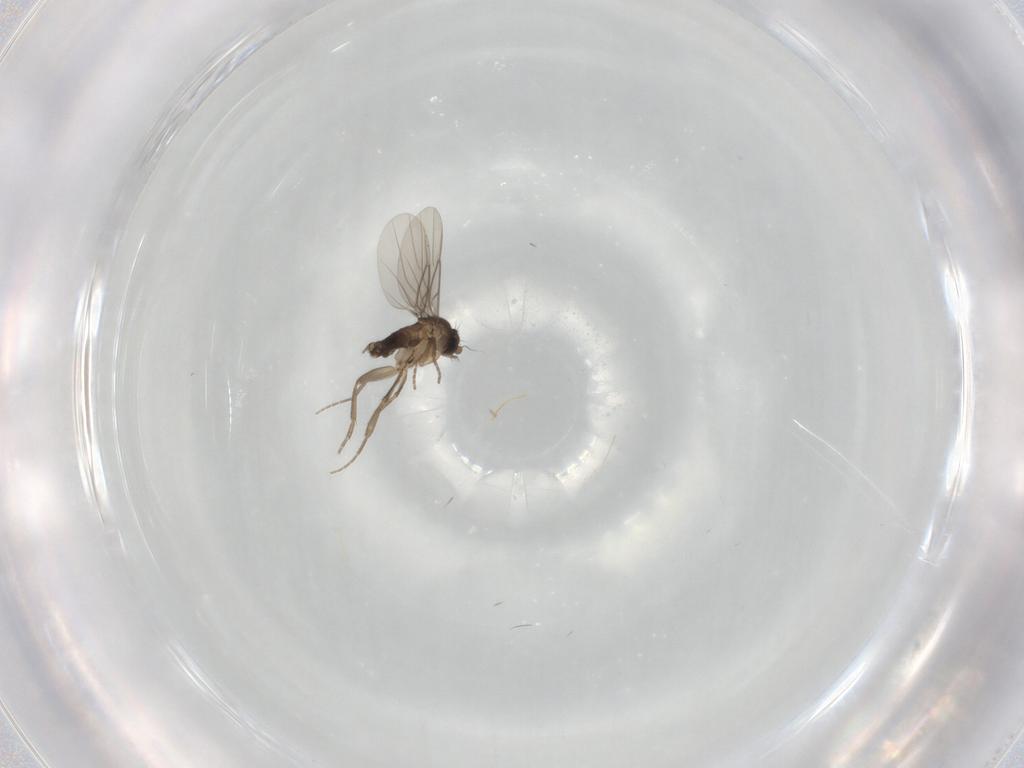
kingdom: Animalia
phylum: Arthropoda
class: Insecta
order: Diptera
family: Phoridae
